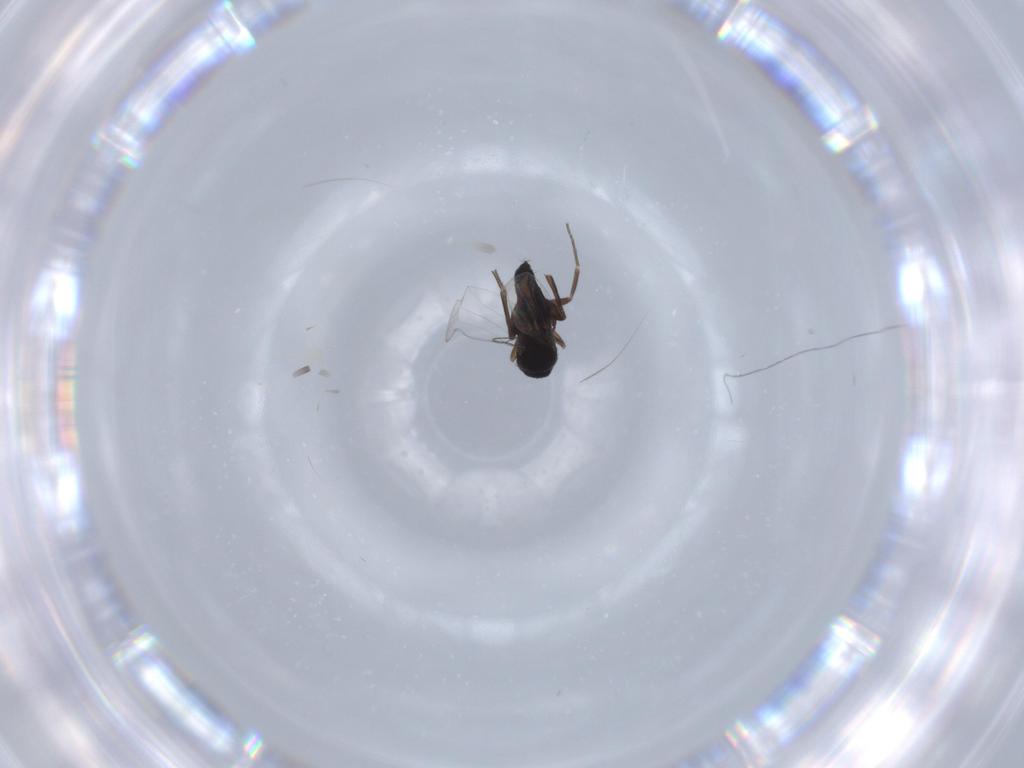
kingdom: Animalia
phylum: Arthropoda
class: Insecta
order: Diptera
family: Phoridae
